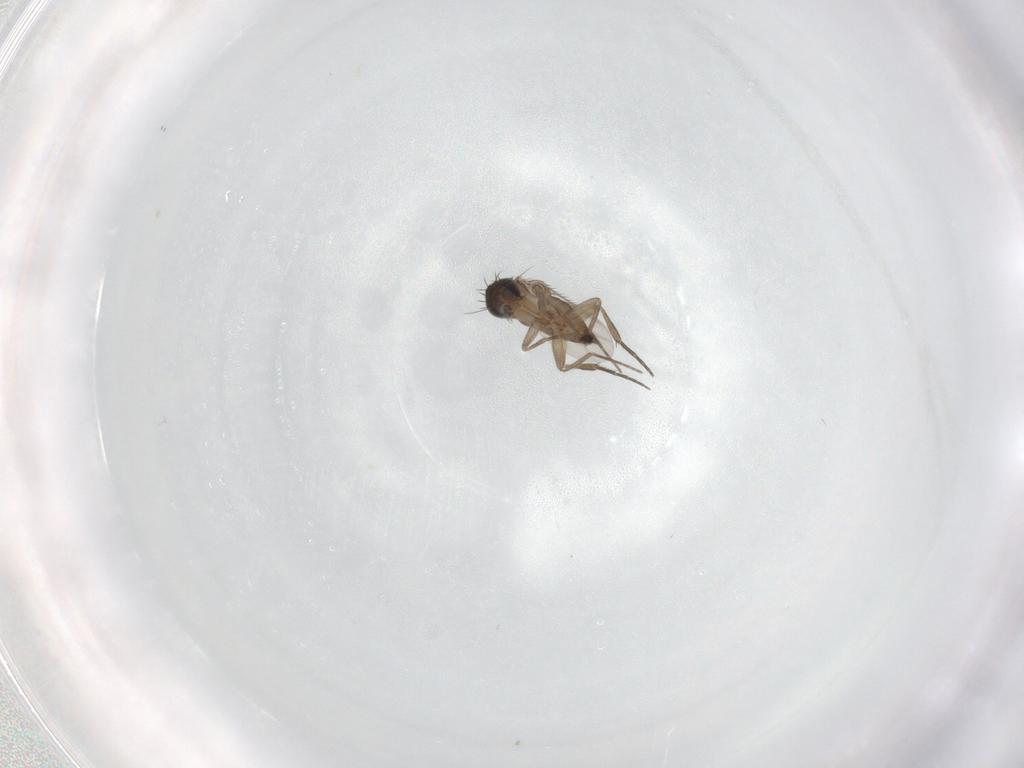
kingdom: Animalia
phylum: Arthropoda
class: Insecta
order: Diptera
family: Phoridae
